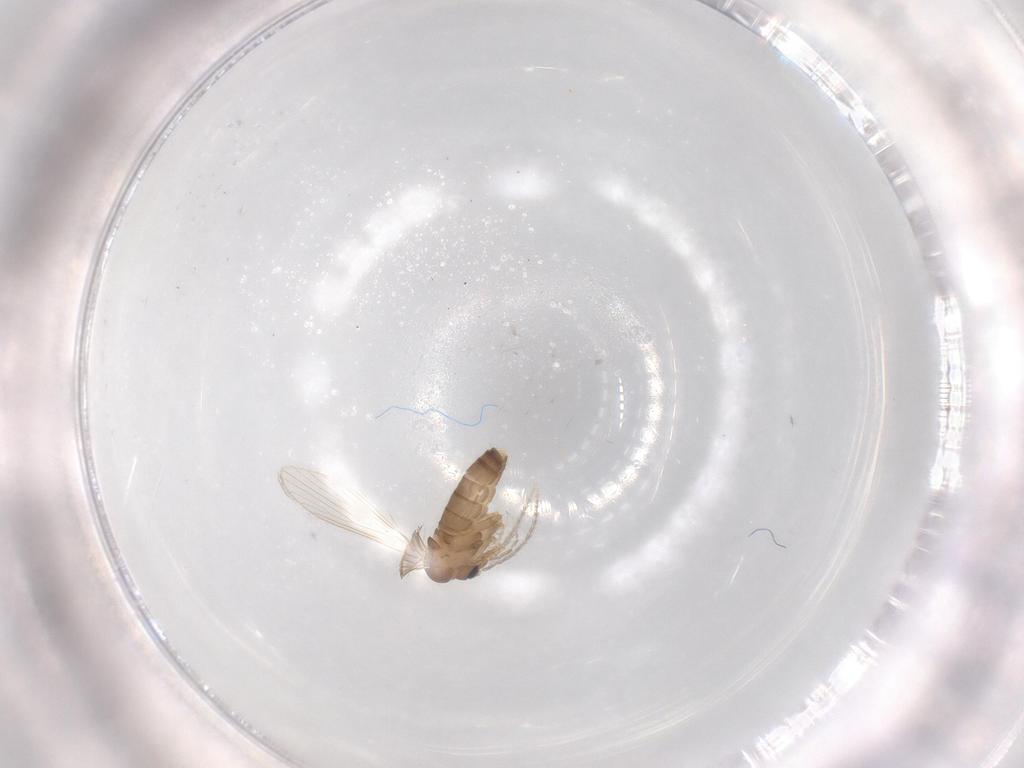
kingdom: Animalia
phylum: Arthropoda
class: Insecta
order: Diptera
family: Psychodidae
